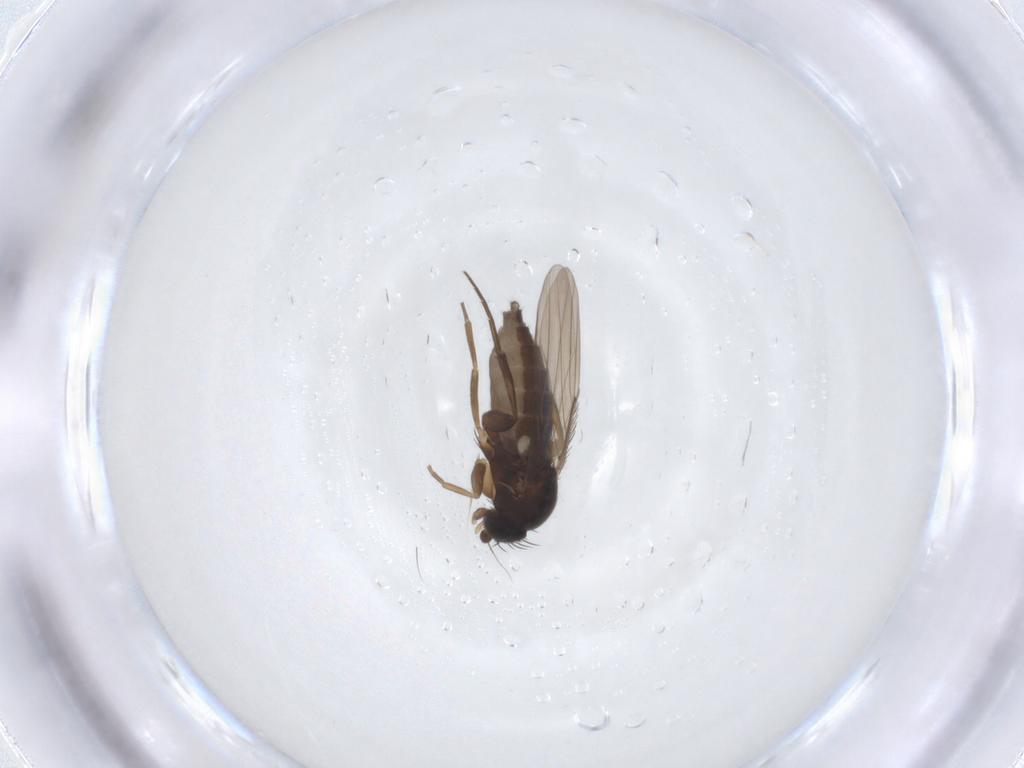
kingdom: Animalia
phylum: Arthropoda
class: Insecta
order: Diptera
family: Phoridae
